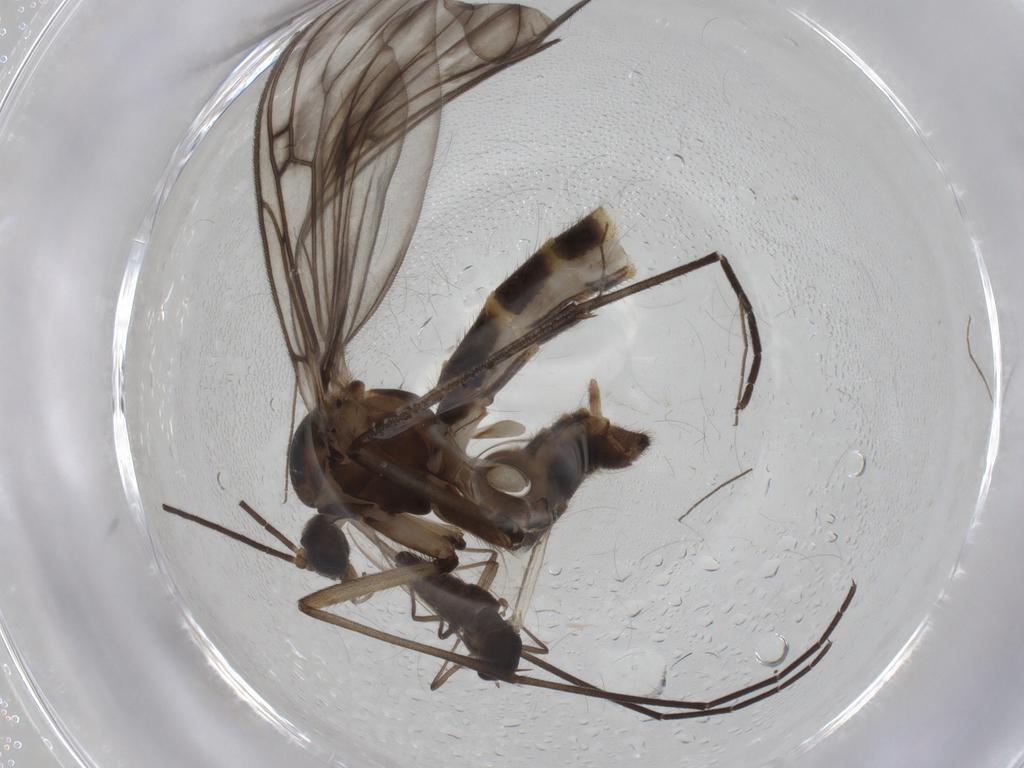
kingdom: Animalia
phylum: Arthropoda
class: Insecta
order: Diptera
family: Mycetophilidae
